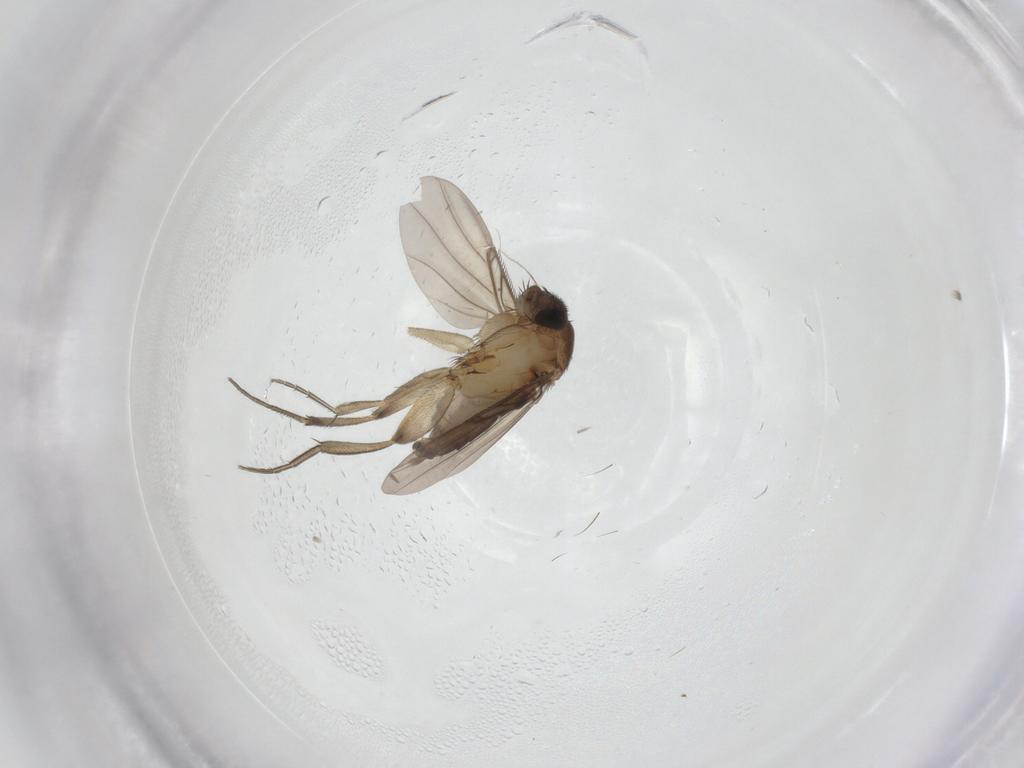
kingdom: Animalia
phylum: Arthropoda
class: Insecta
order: Diptera
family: Phoridae
